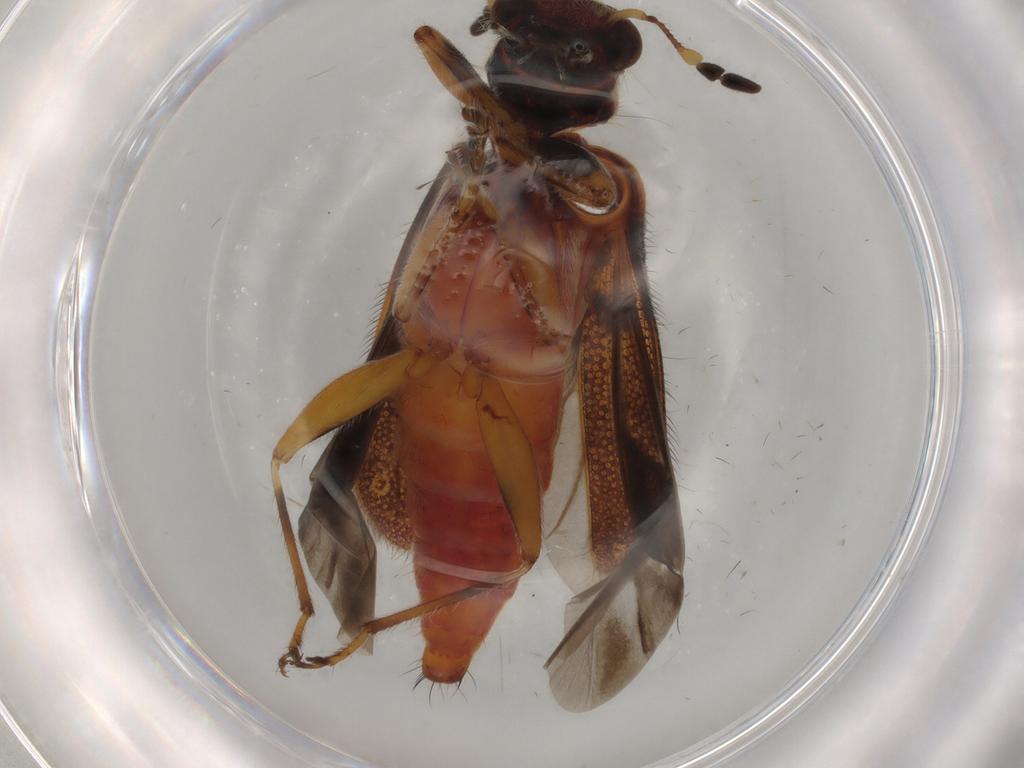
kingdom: Animalia
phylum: Arthropoda
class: Insecta
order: Coleoptera
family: Cleridae
